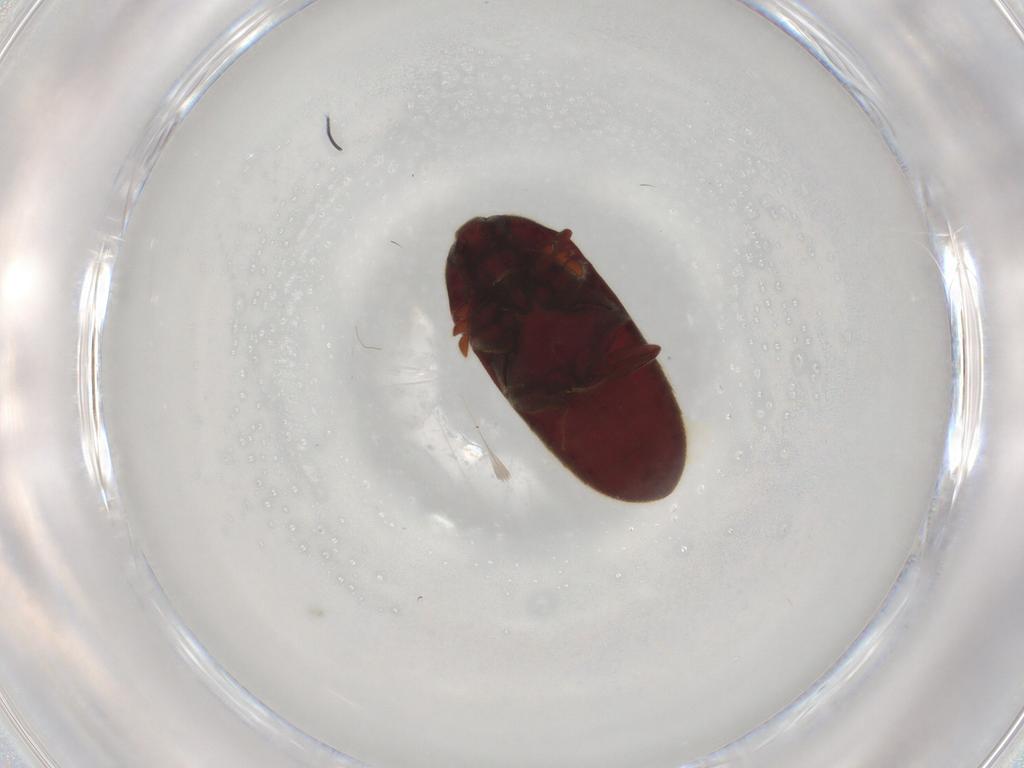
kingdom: Animalia
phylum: Arthropoda
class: Insecta
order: Coleoptera
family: Throscidae
